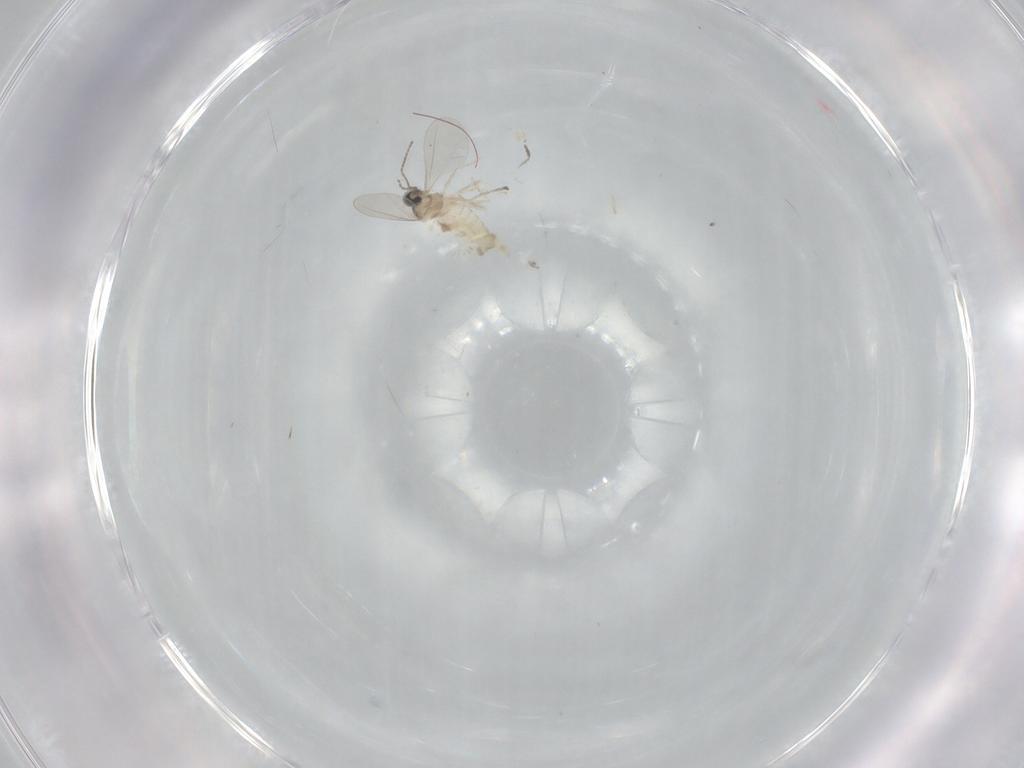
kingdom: Animalia
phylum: Arthropoda
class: Insecta
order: Diptera
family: Cecidomyiidae
